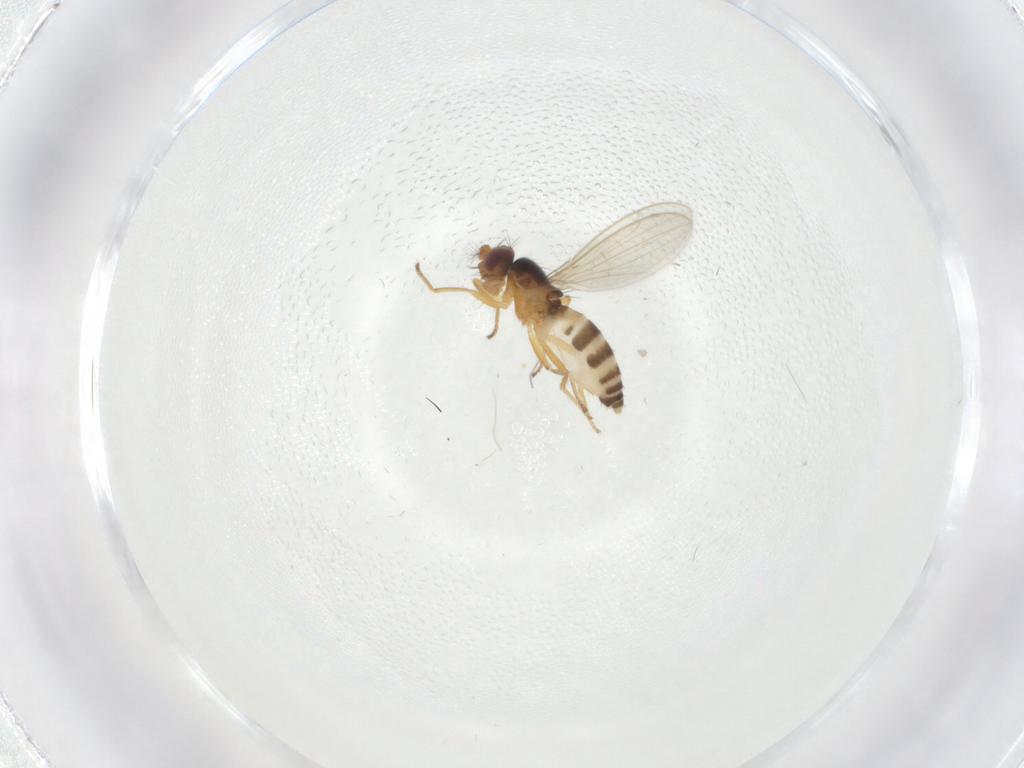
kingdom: Animalia
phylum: Arthropoda
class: Insecta
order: Diptera
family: Periscelididae
